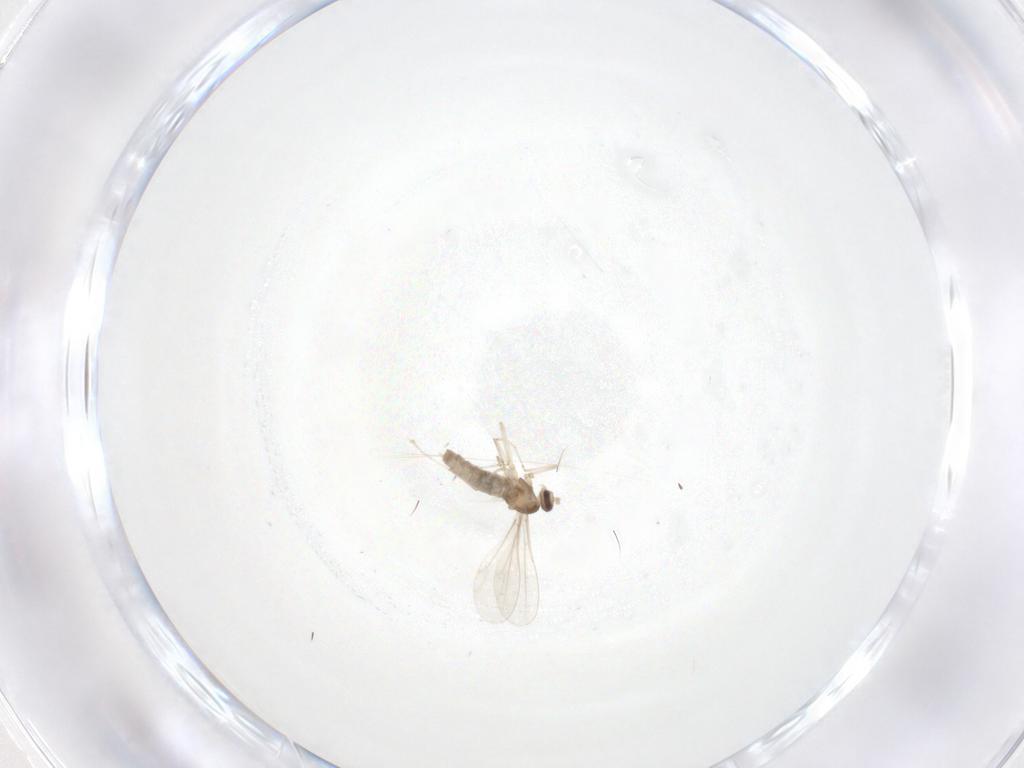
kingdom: Animalia
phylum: Arthropoda
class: Insecta
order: Diptera
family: Cecidomyiidae
